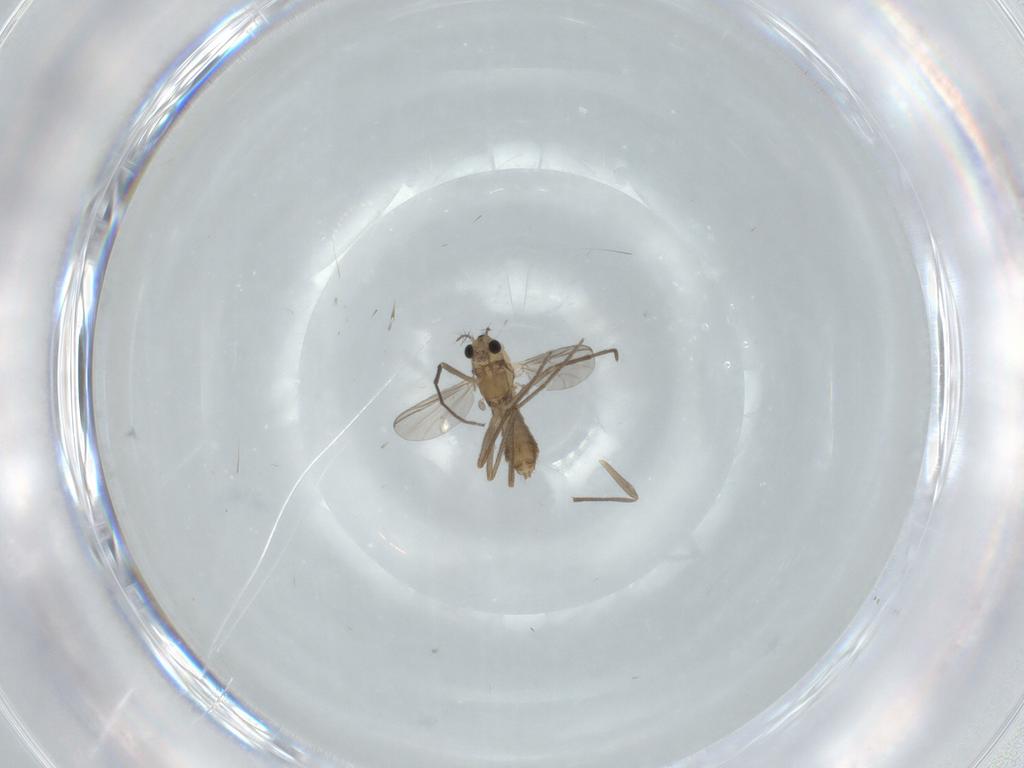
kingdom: Animalia
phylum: Arthropoda
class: Insecta
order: Diptera
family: Chironomidae
